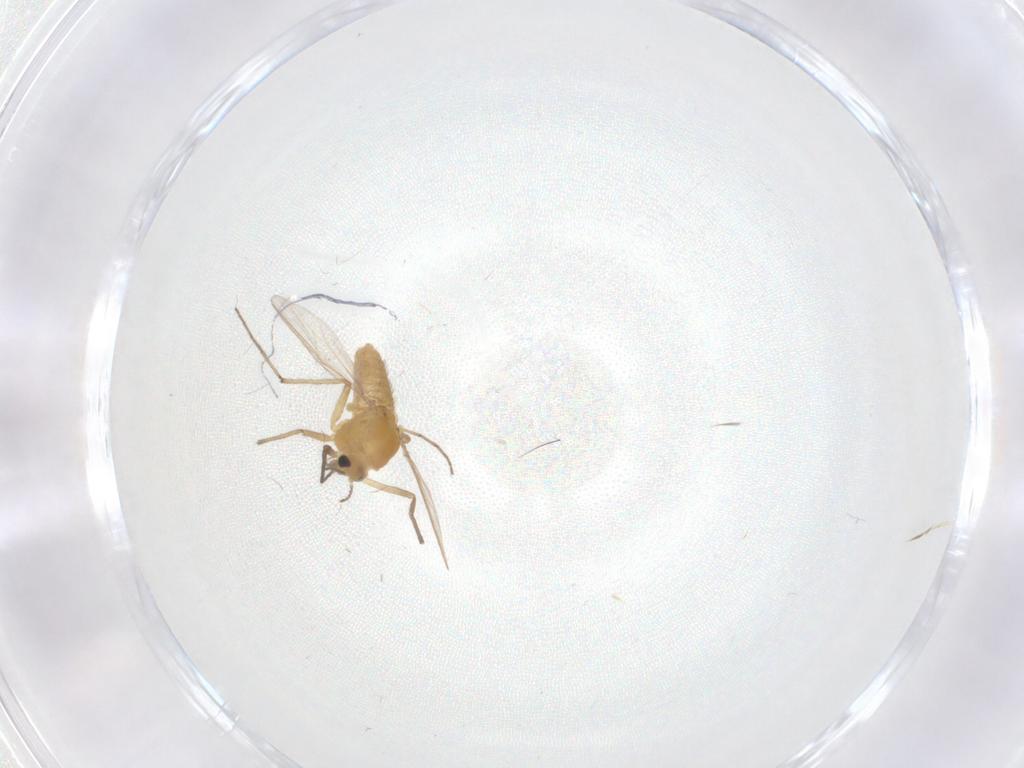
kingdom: Animalia
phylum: Arthropoda
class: Insecta
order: Diptera
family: Chironomidae
